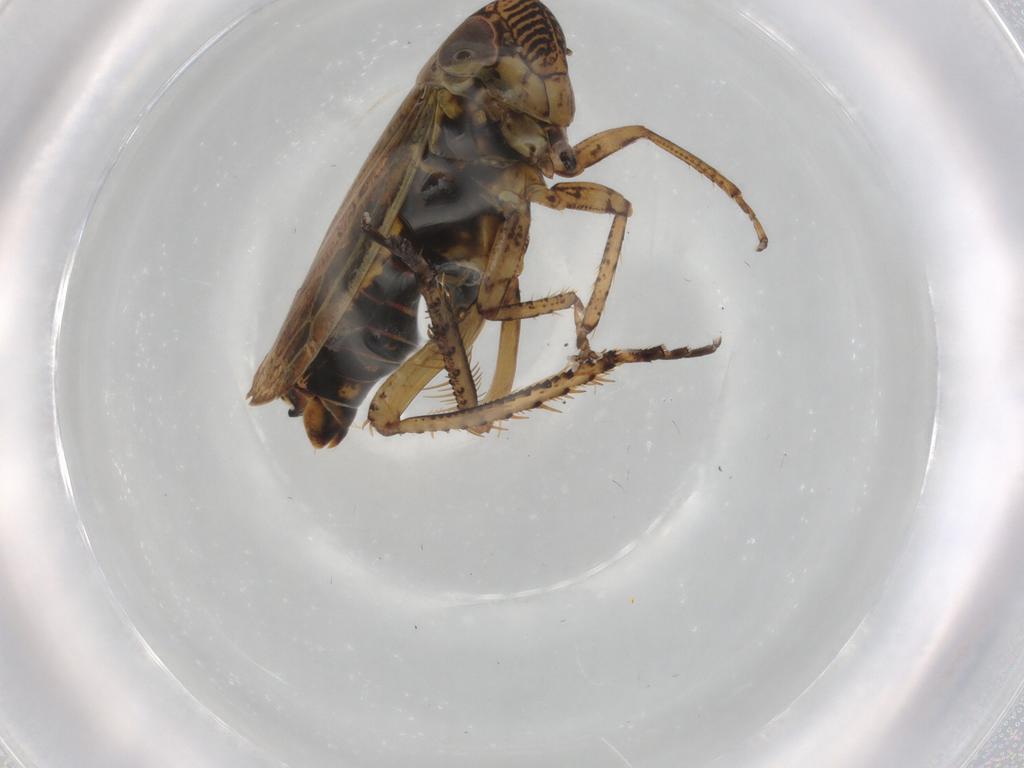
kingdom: Animalia
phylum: Arthropoda
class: Insecta
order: Hemiptera
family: Cicadellidae
